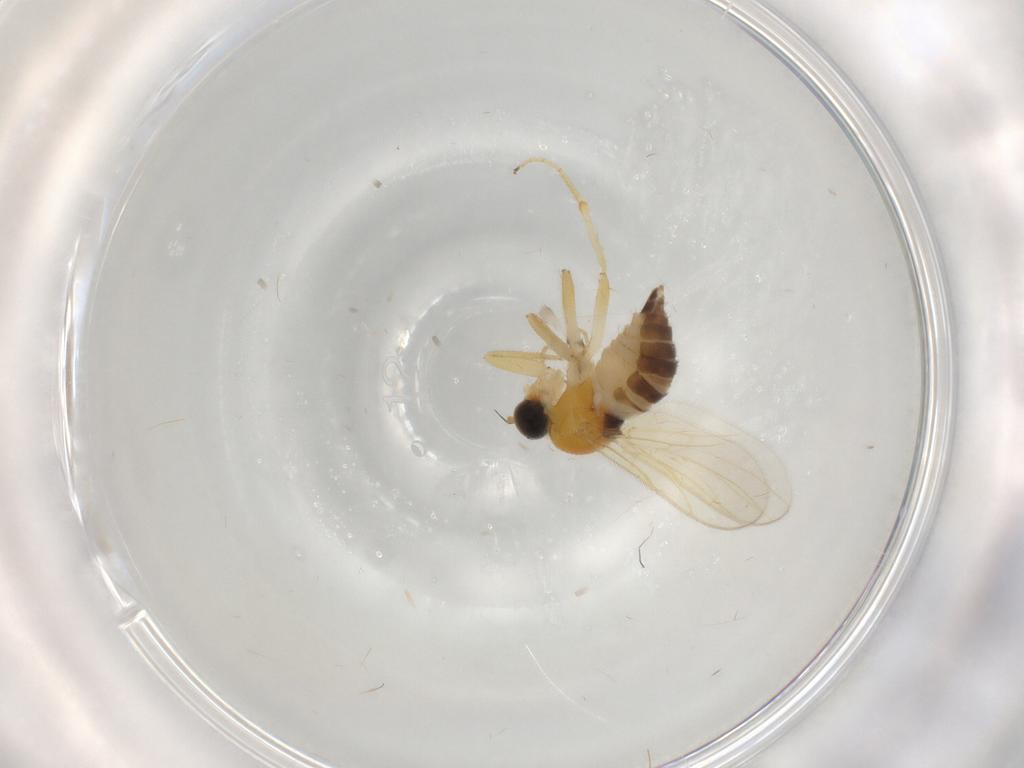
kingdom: Animalia
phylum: Arthropoda
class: Insecta
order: Diptera
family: Hybotidae
